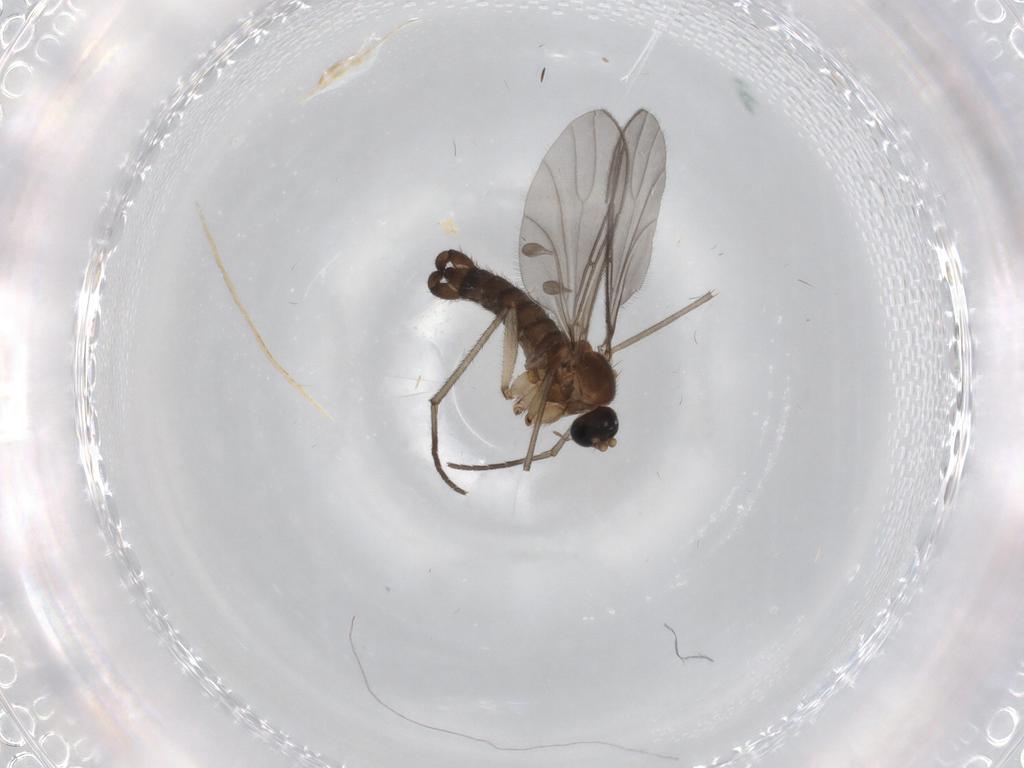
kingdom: Animalia
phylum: Arthropoda
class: Insecta
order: Diptera
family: Sciaridae
